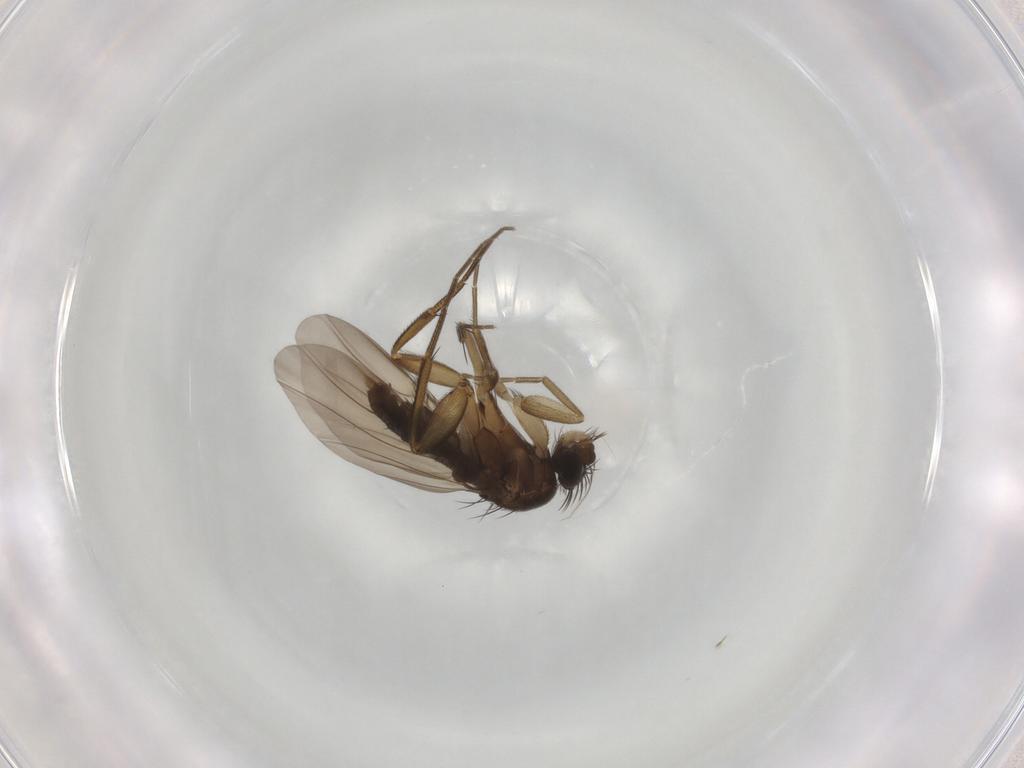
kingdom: Animalia
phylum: Arthropoda
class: Insecta
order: Diptera
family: Phoridae
